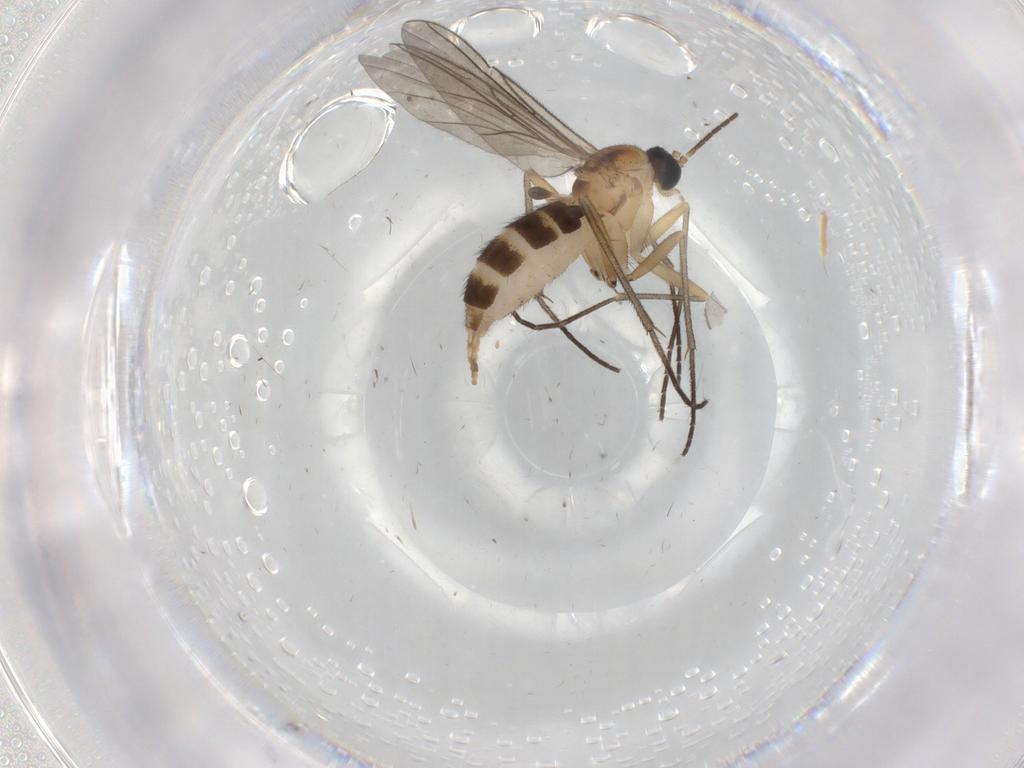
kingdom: Animalia
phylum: Arthropoda
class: Insecta
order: Diptera
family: Sciaridae
